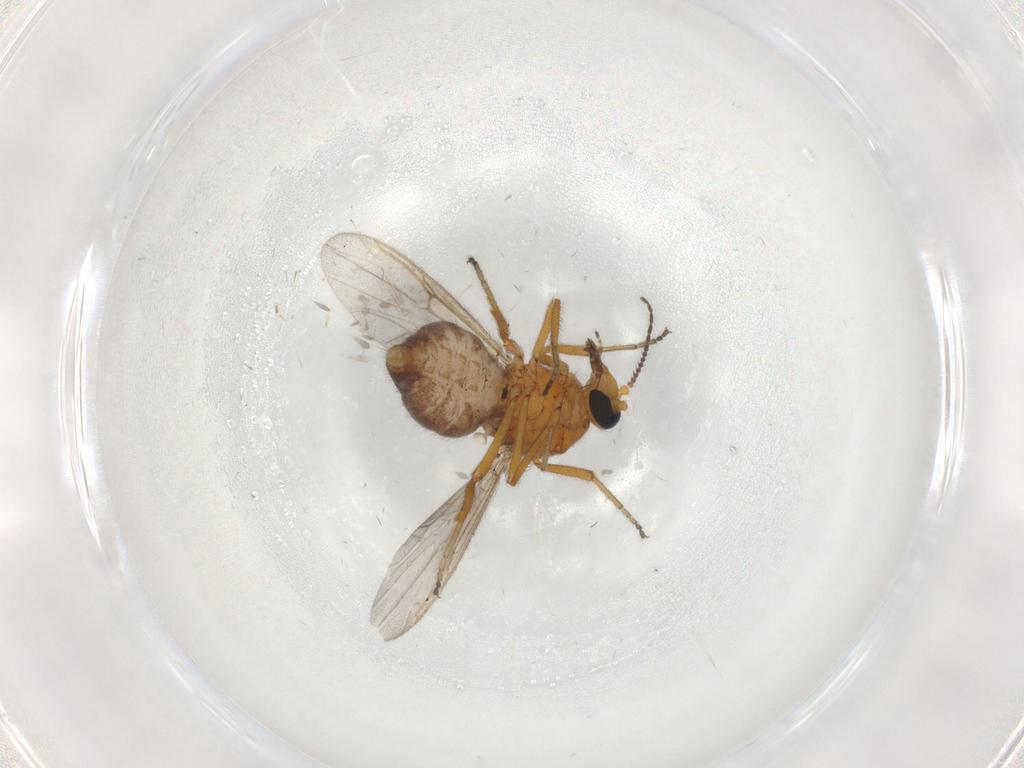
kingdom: Animalia
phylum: Arthropoda
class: Insecta
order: Diptera
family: Ceratopogonidae
